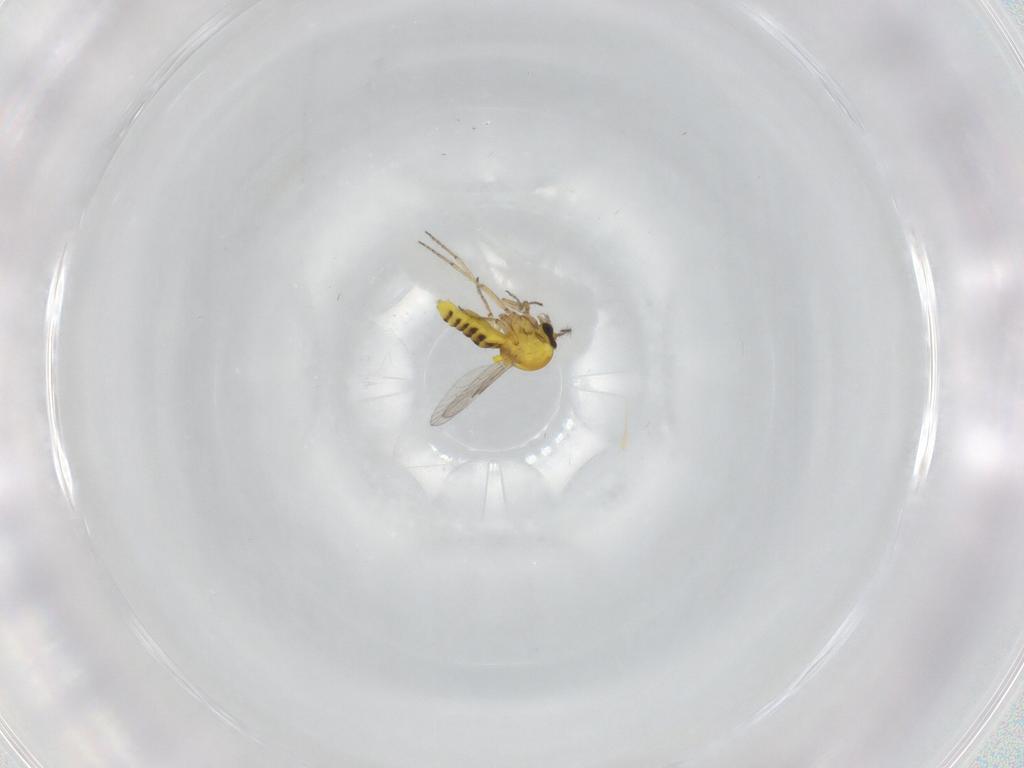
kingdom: Animalia
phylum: Arthropoda
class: Insecta
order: Diptera
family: Ceratopogonidae
